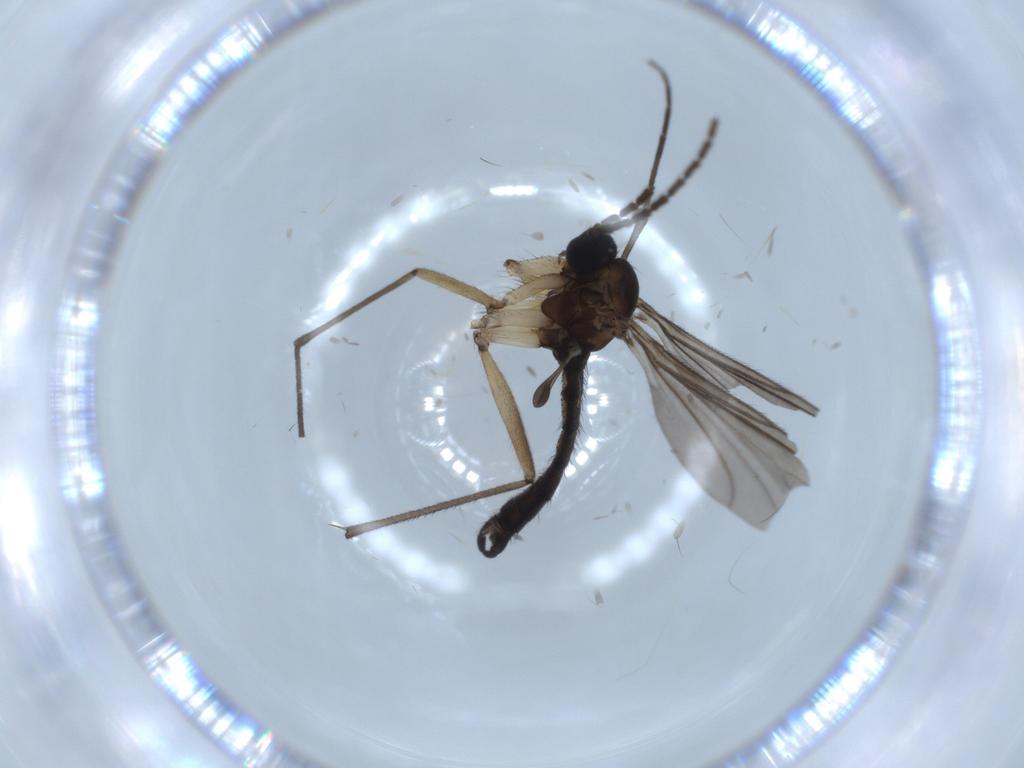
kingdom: Animalia
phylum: Arthropoda
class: Insecta
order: Diptera
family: Sciaridae
